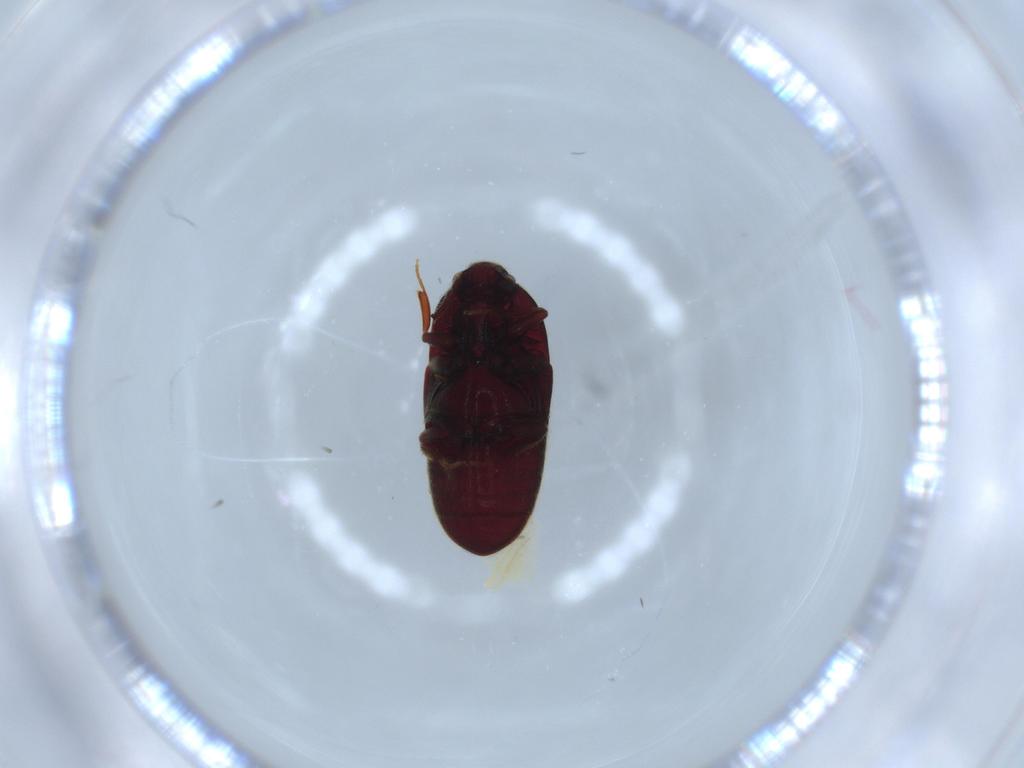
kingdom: Animalia
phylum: Arthropoda
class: Insecta
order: Coleoptera
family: Throscidae
